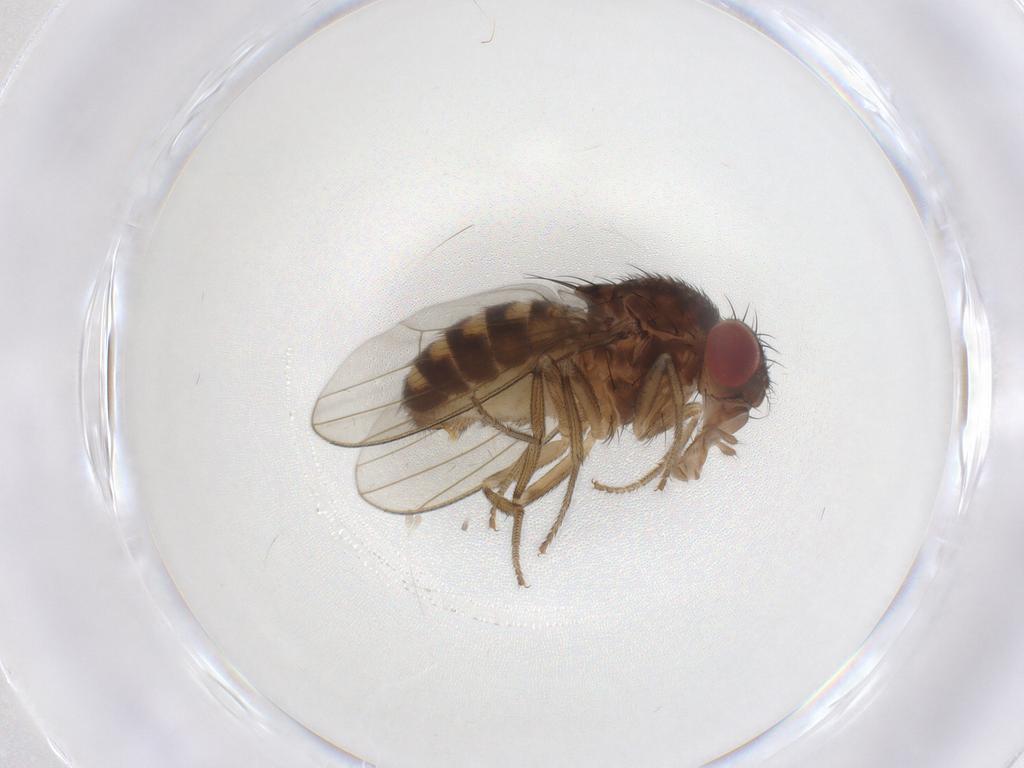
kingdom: Animalia
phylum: Arthropoda
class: Insecta
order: Diptera
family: Drosophilidae
